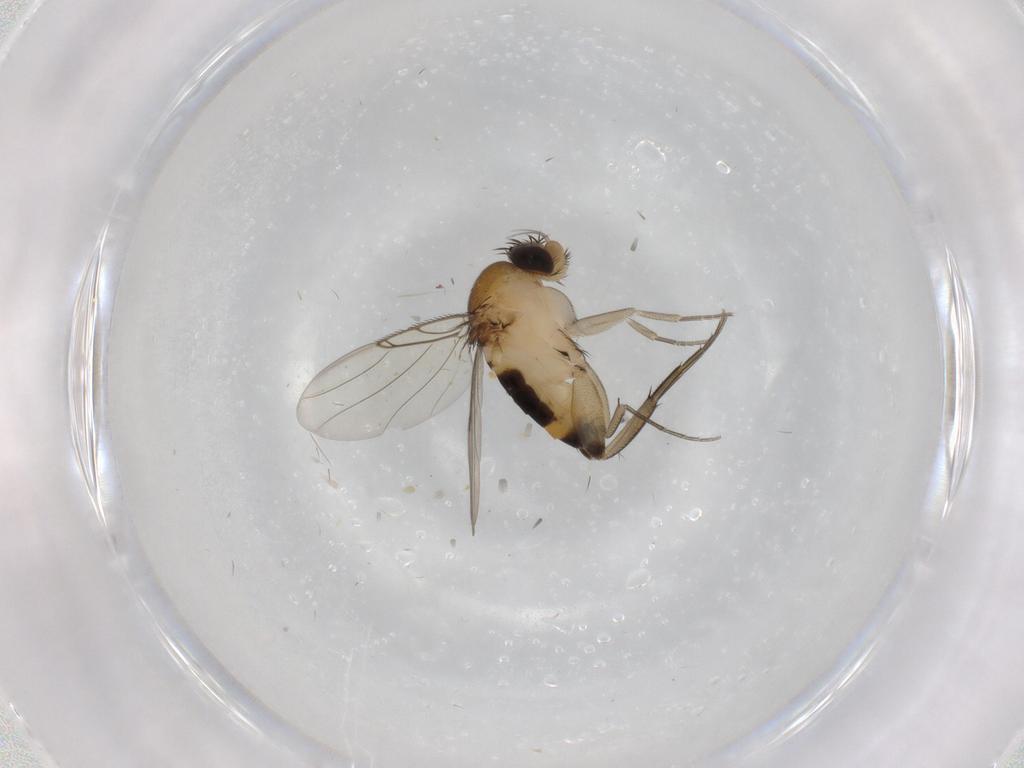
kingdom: Animalia
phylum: Arthropoda
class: Insecta
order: Diptera
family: Phoridae
